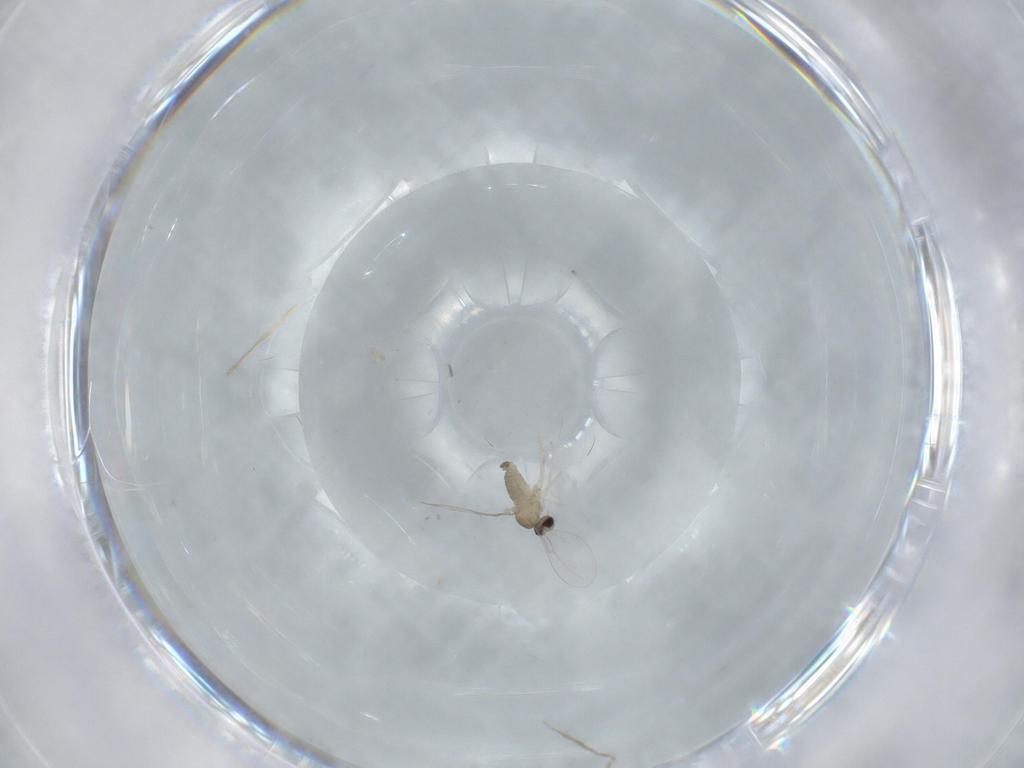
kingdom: Animalia
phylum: Arthropoda
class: Insecta
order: Diptera
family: Cecidomyiidae
